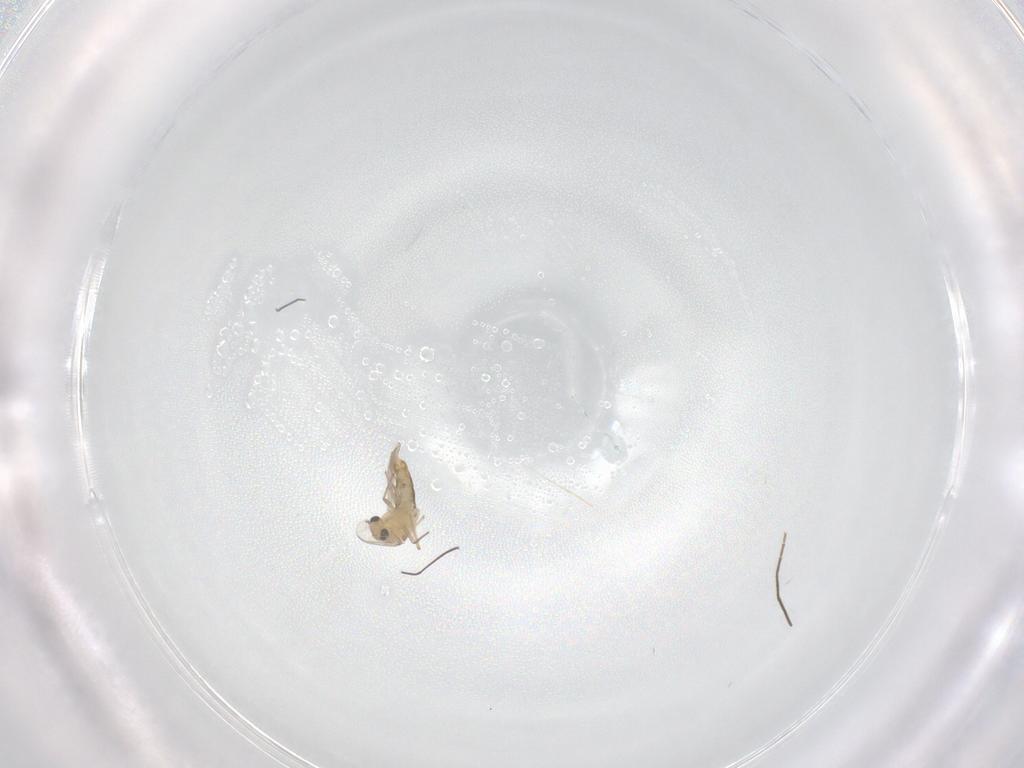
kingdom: Animalia
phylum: Arthropoda
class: Insecta
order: Diptera
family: Chironomidae
